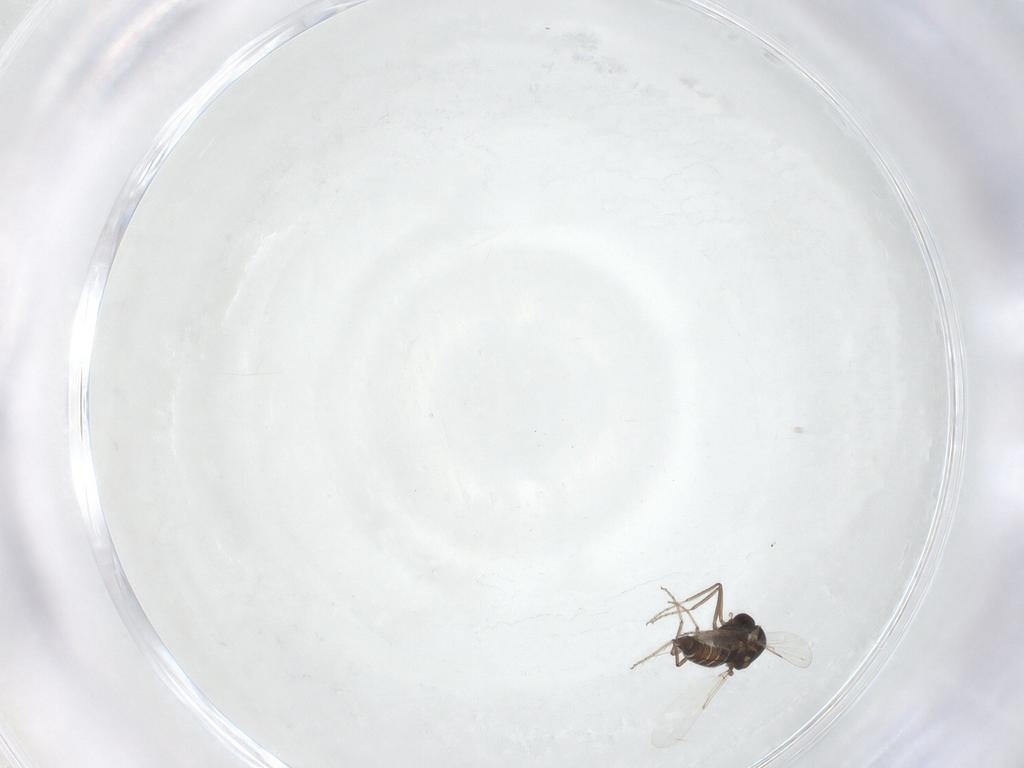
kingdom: Animalia
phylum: Arthropoda
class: Insecta
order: Diptera
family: Ceratopogonidae
